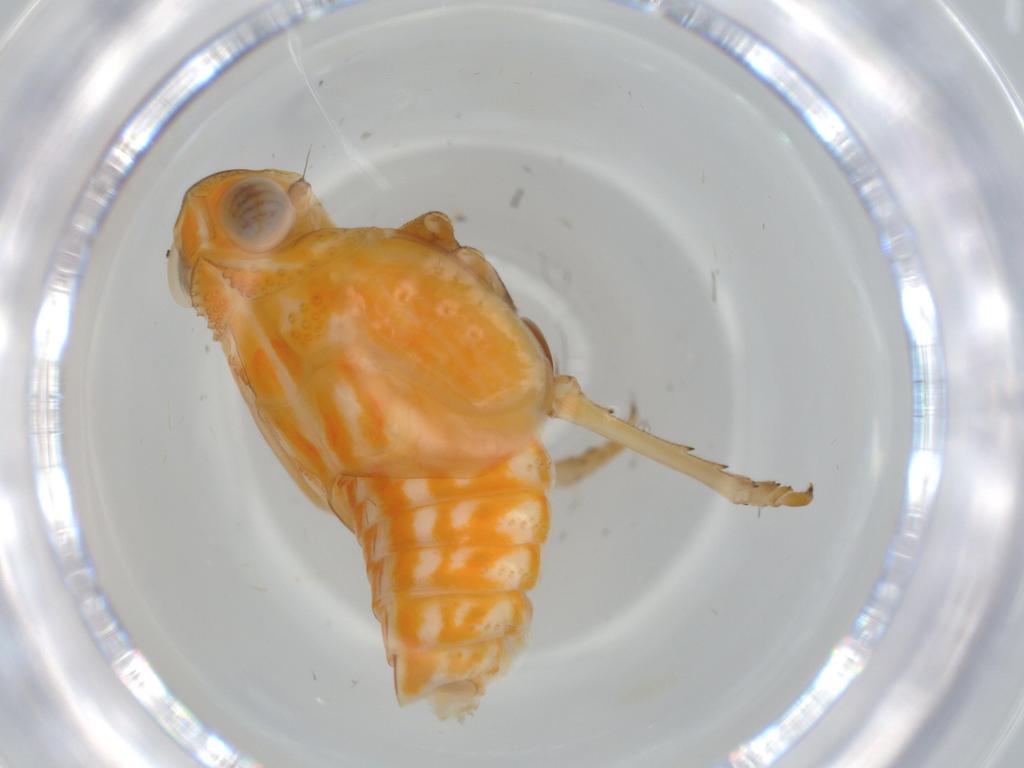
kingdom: Animalia
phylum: Arthropoda
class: Insecta
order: Hemiptera
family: Issidae
